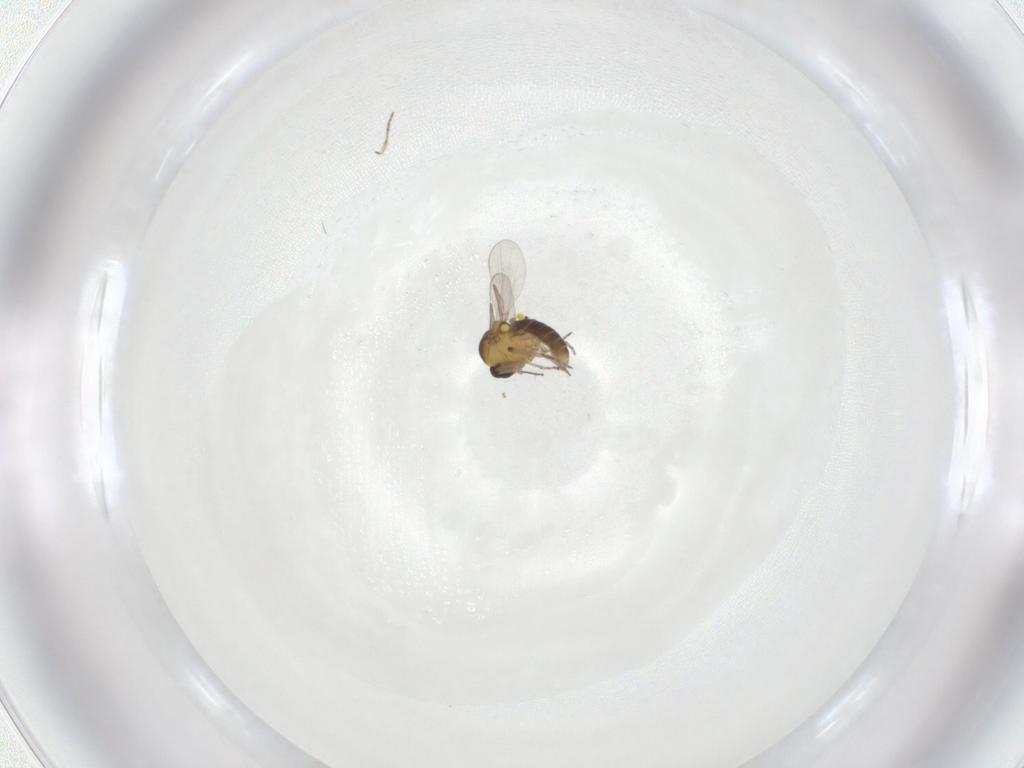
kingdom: Animalia
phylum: Arthropoda
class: Insecta
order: Diptera
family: Ceratopogonidae
